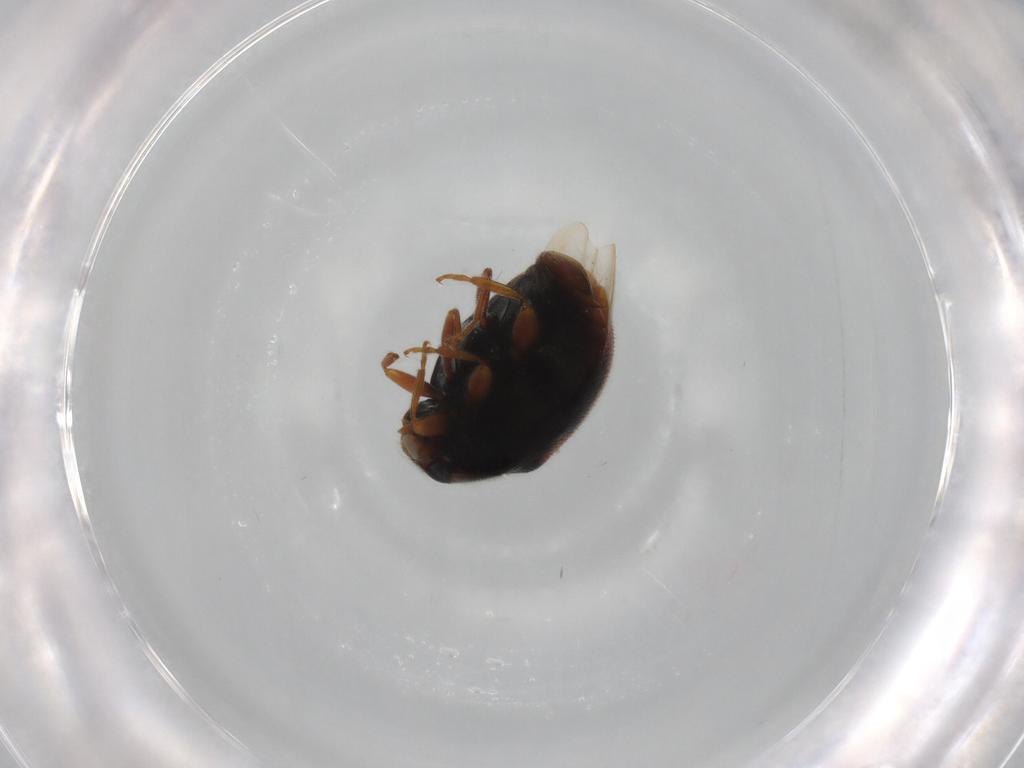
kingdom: Animalia
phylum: Arthropoda
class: Insecta
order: Coleoptera
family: Coccinellidae
